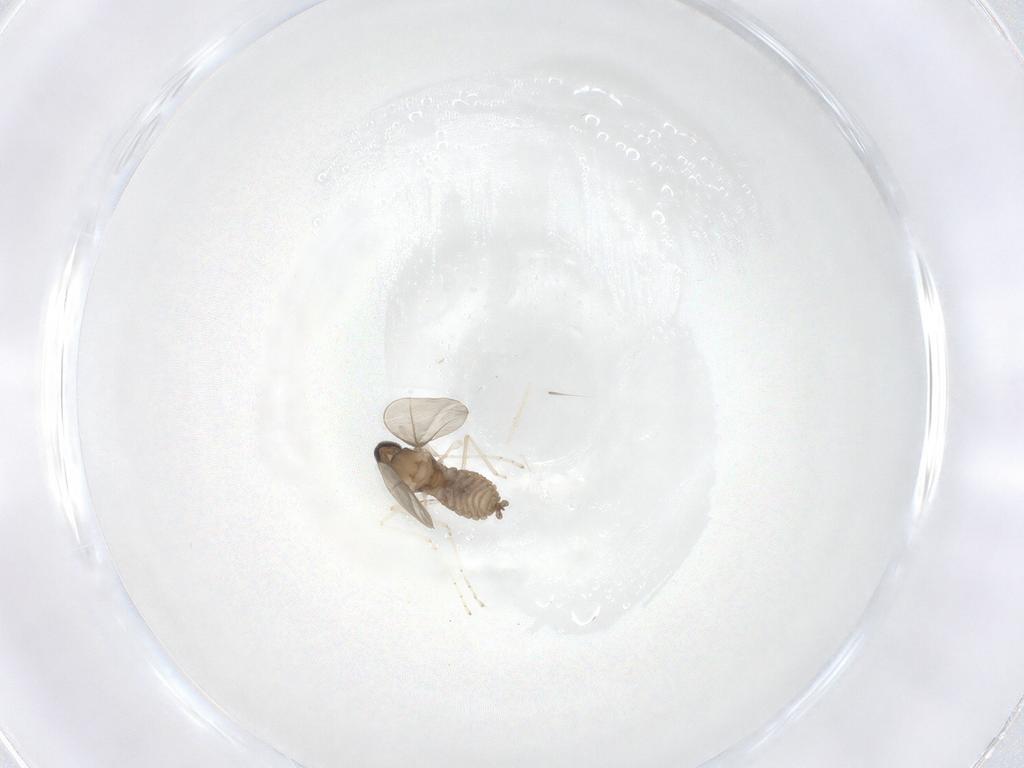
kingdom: Animalia
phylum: Arthropoda
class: Insecta
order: Diptera
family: Cecidomyiidae
